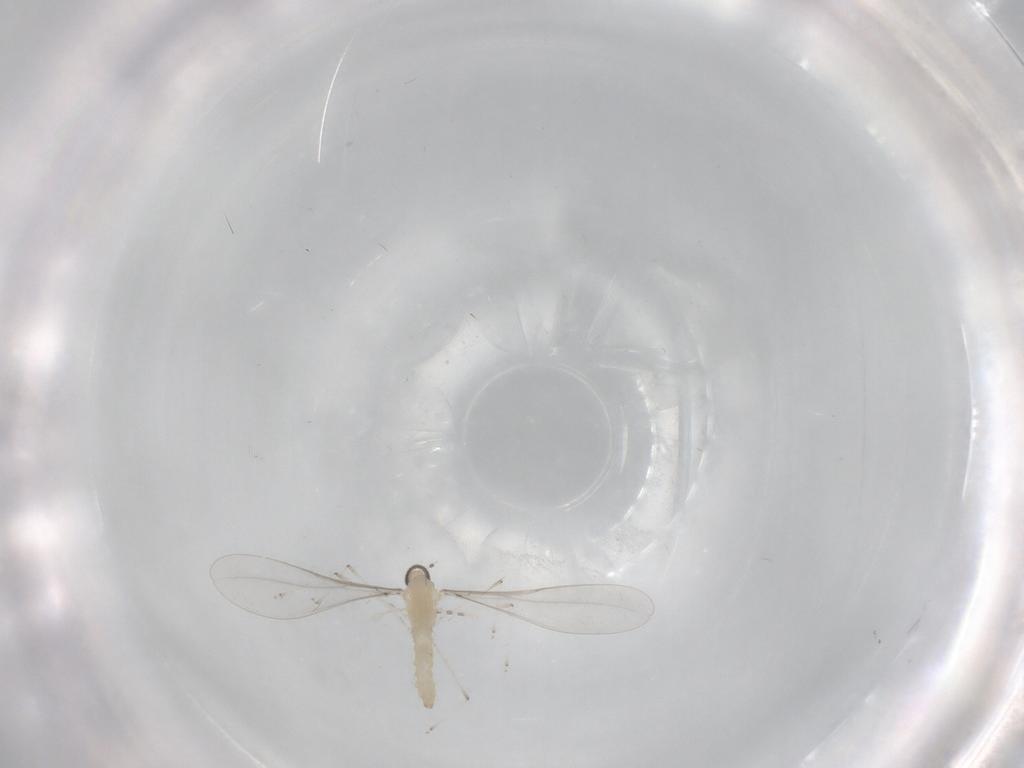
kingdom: Animalia
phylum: Arthropoda
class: Insecta
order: Diptera
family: Cecidomyiidae
